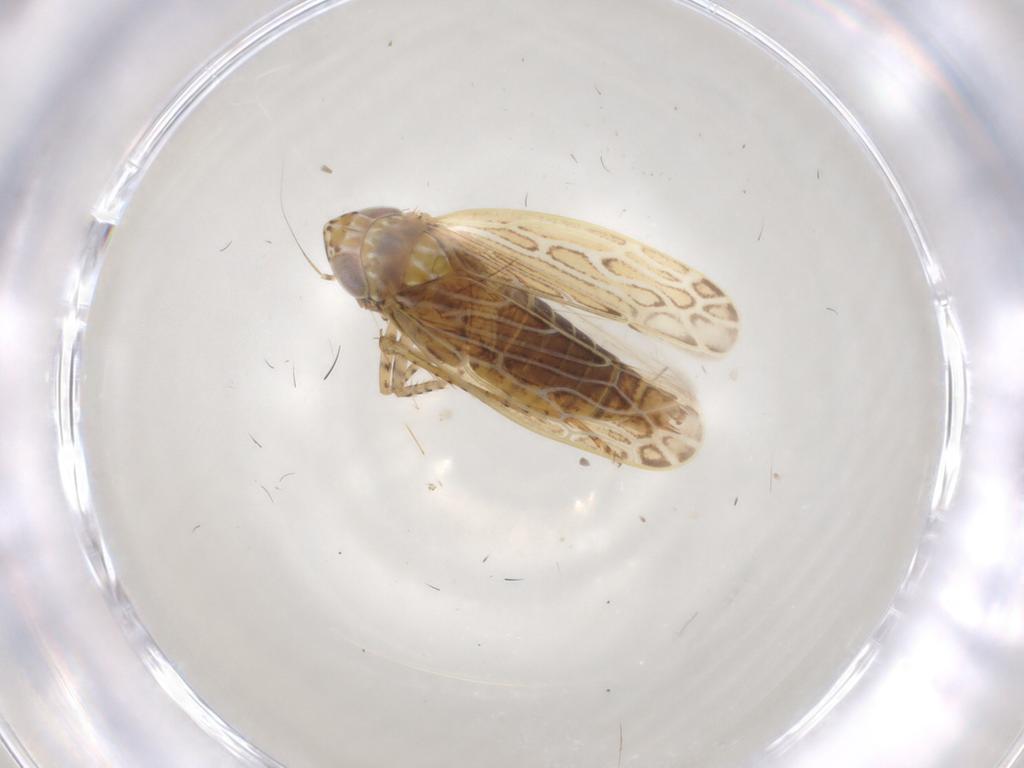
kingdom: Animalia
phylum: Arthropoda
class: Insecta
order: Hemiptera
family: Cicadellidae
